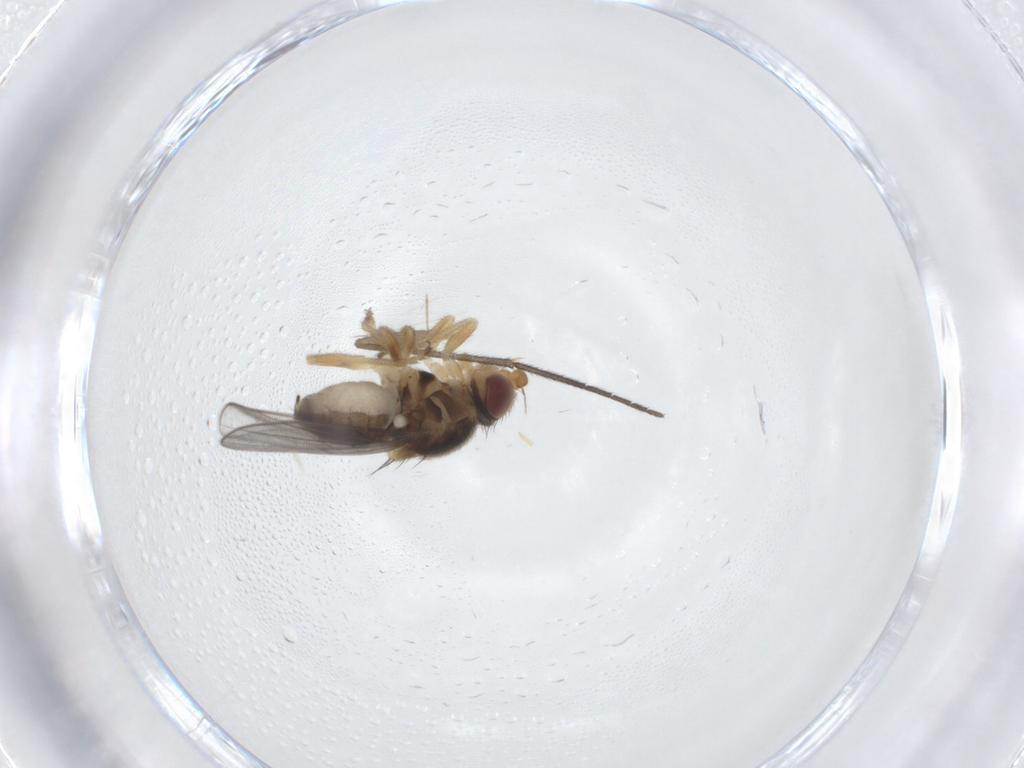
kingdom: Animalia
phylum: Arthropoda
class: Insecta
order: Diptera
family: Chloropidae
